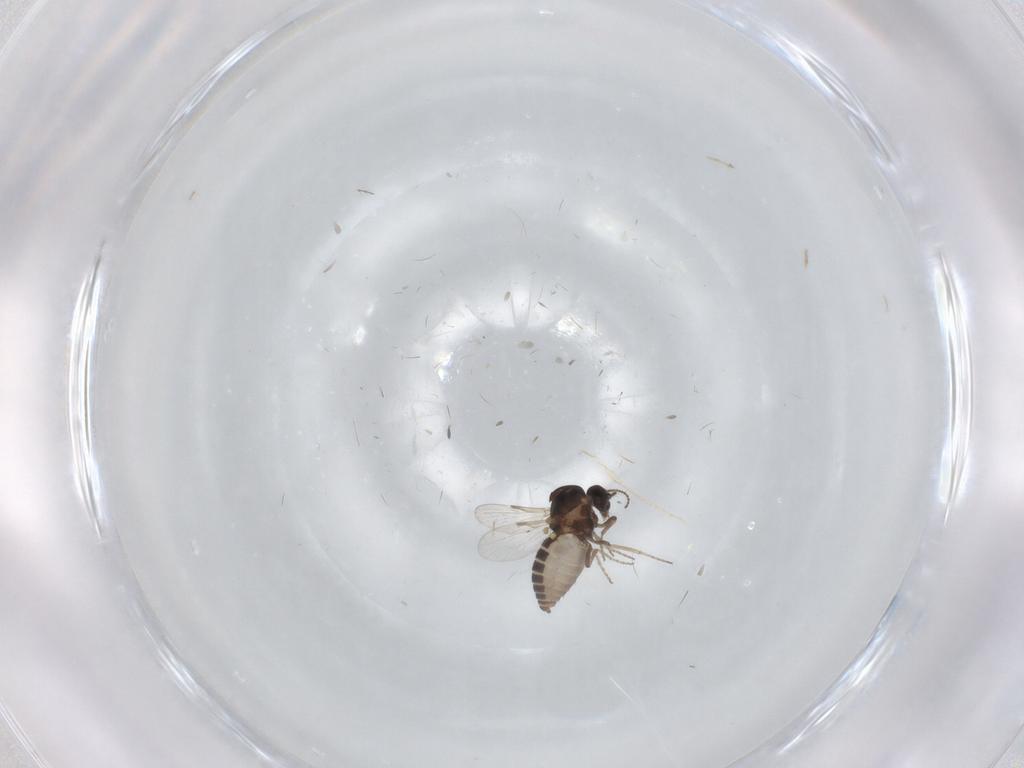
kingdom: Animalia
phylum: Arthropoda
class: Insecta
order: Diptera
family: Ceratopogonidae
